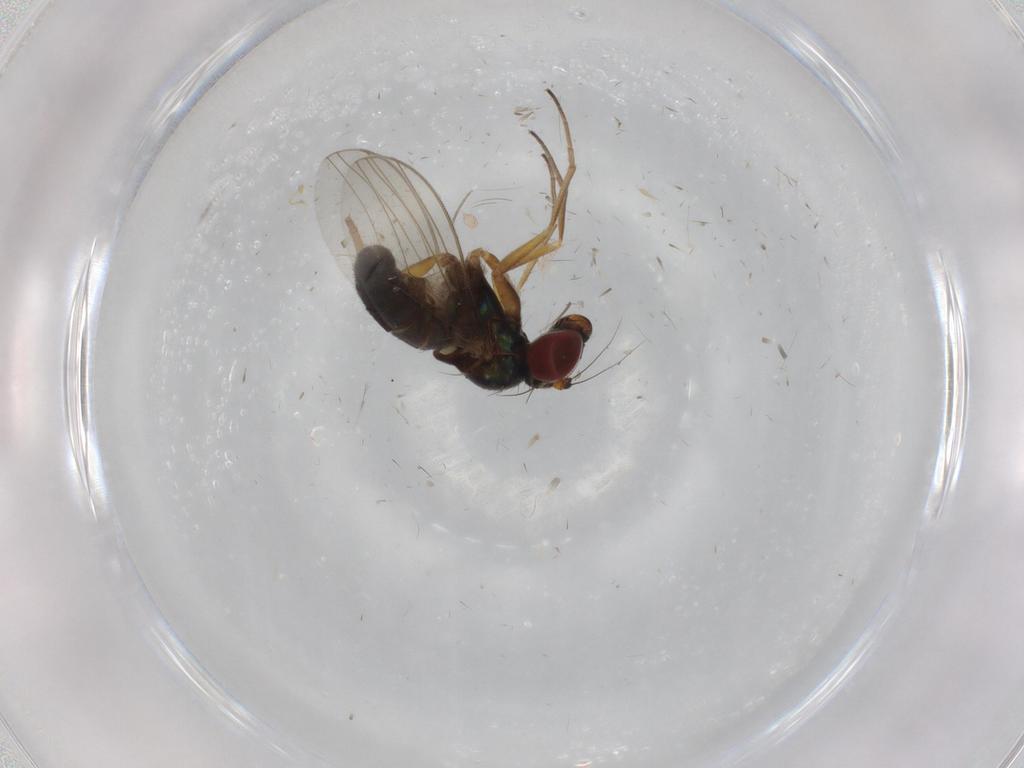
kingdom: Animalia
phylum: Arthropoda
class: Insecta
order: Diptera
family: Dolichopodidae
